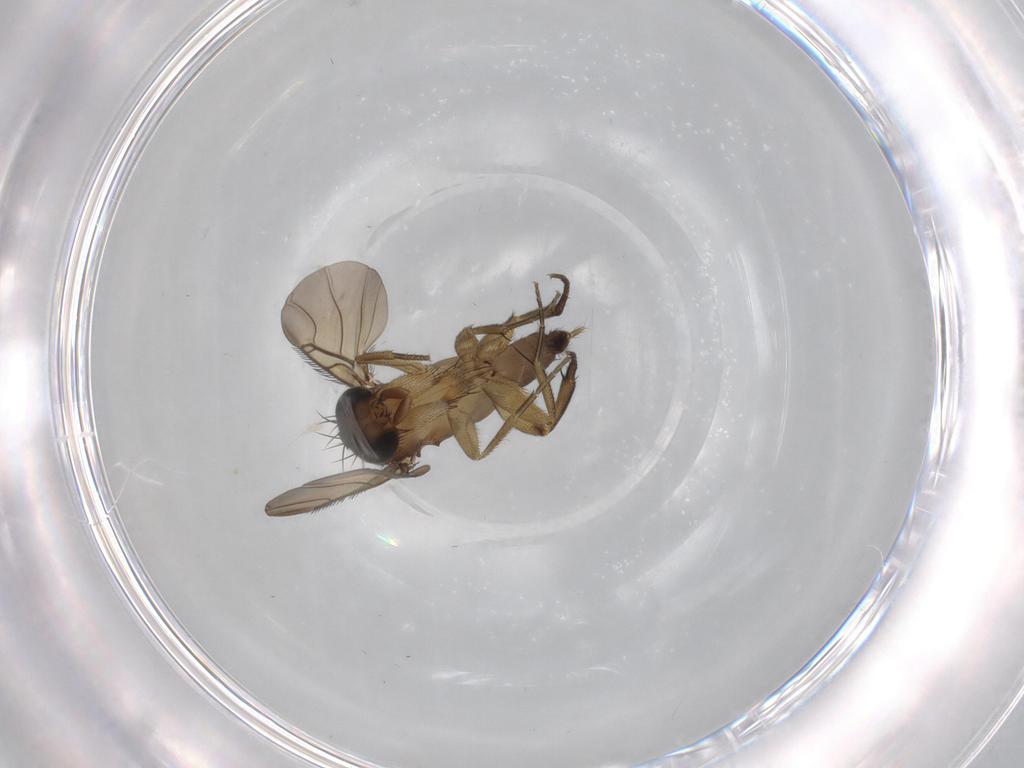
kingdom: Animalia
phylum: Arthropoda
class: Insecta
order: Diptera
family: Phoridae
